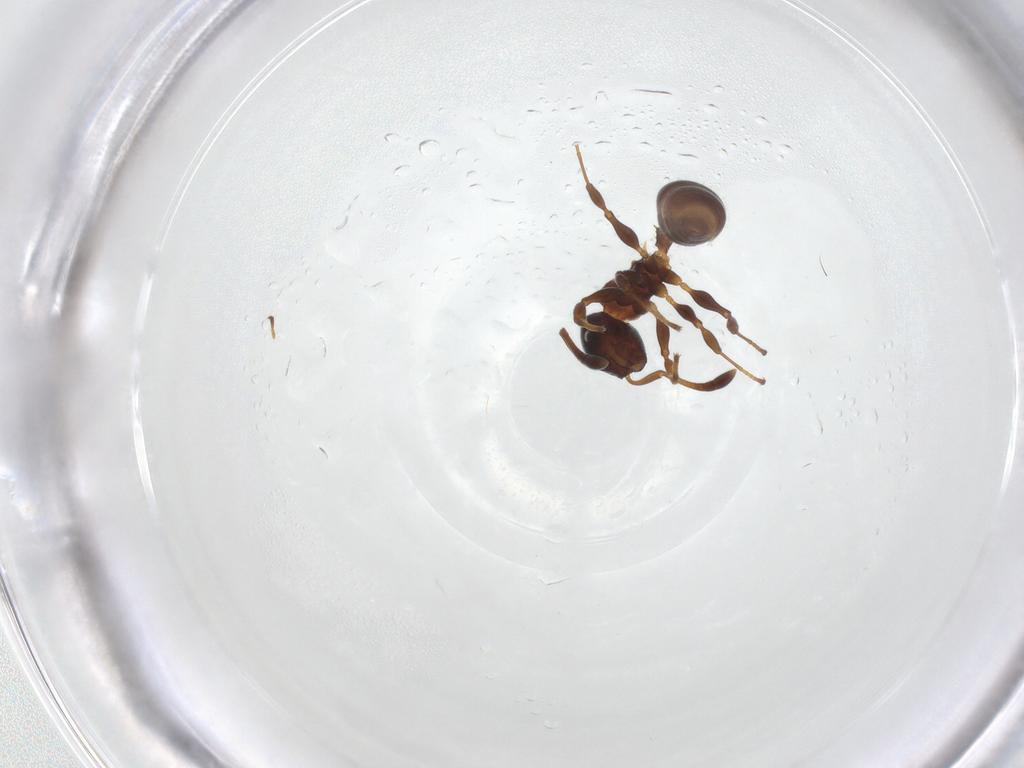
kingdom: Animalia
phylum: Arthropoda
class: Insecta
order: Hymenoptera
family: Formicidae
